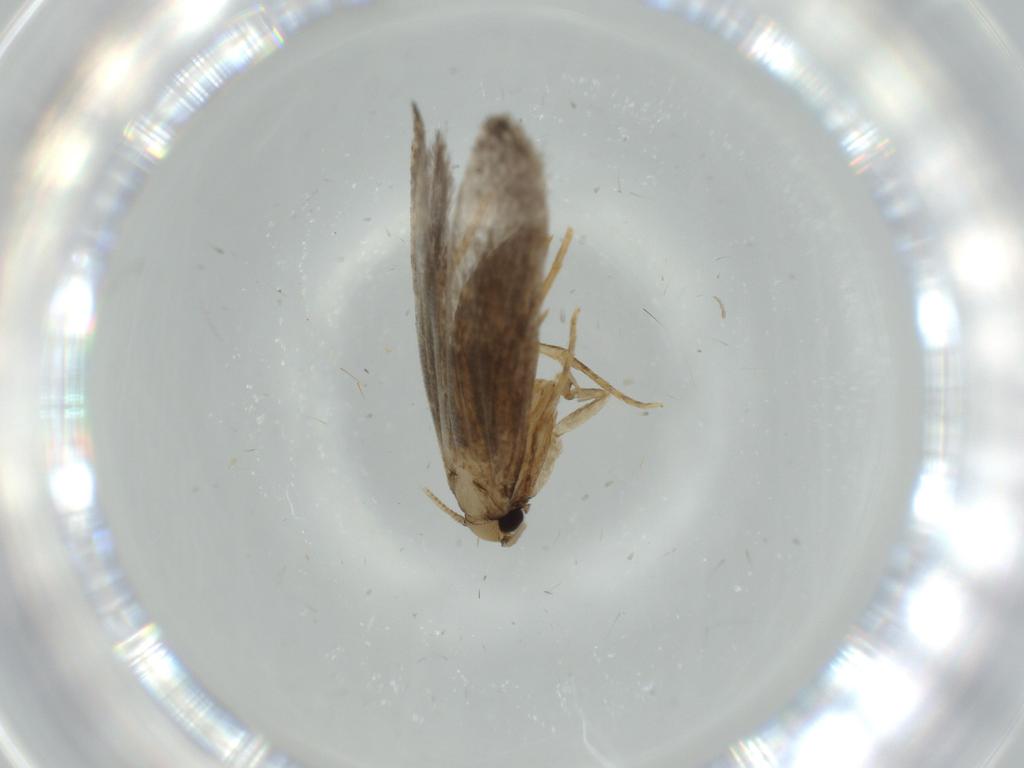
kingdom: Animalia
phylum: Arthropoda
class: Insecta
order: Lepidoptera
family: Tineidae
